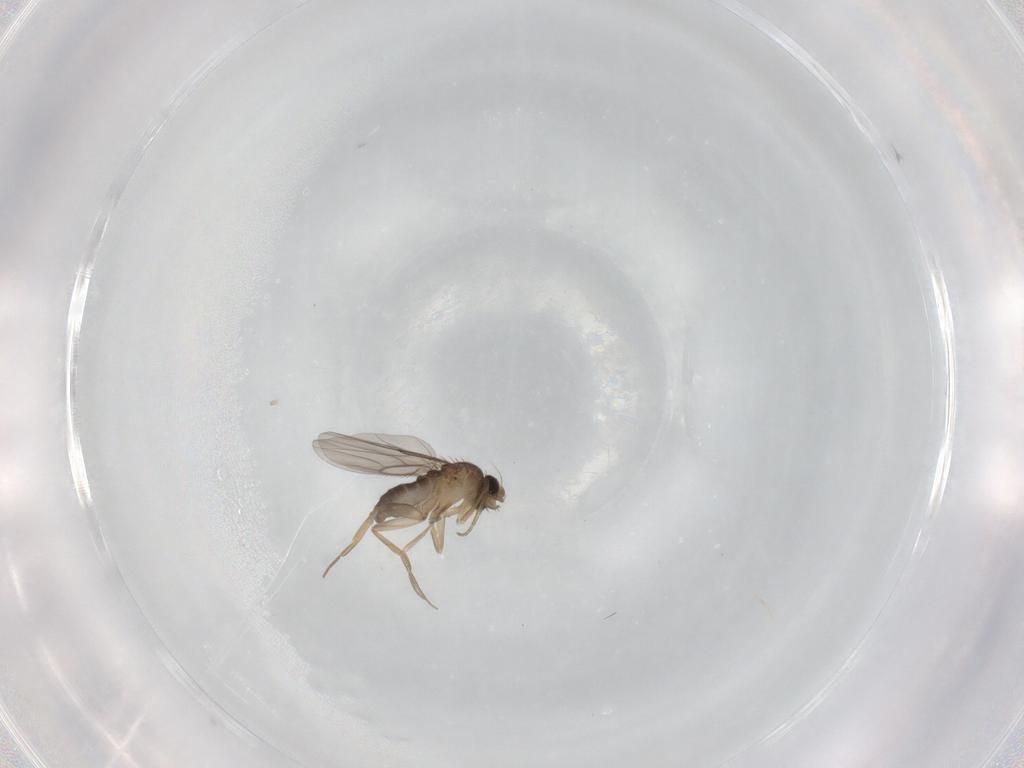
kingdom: Animalia
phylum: Arthropoda
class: Insecta
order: Diptera
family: Phoridae
